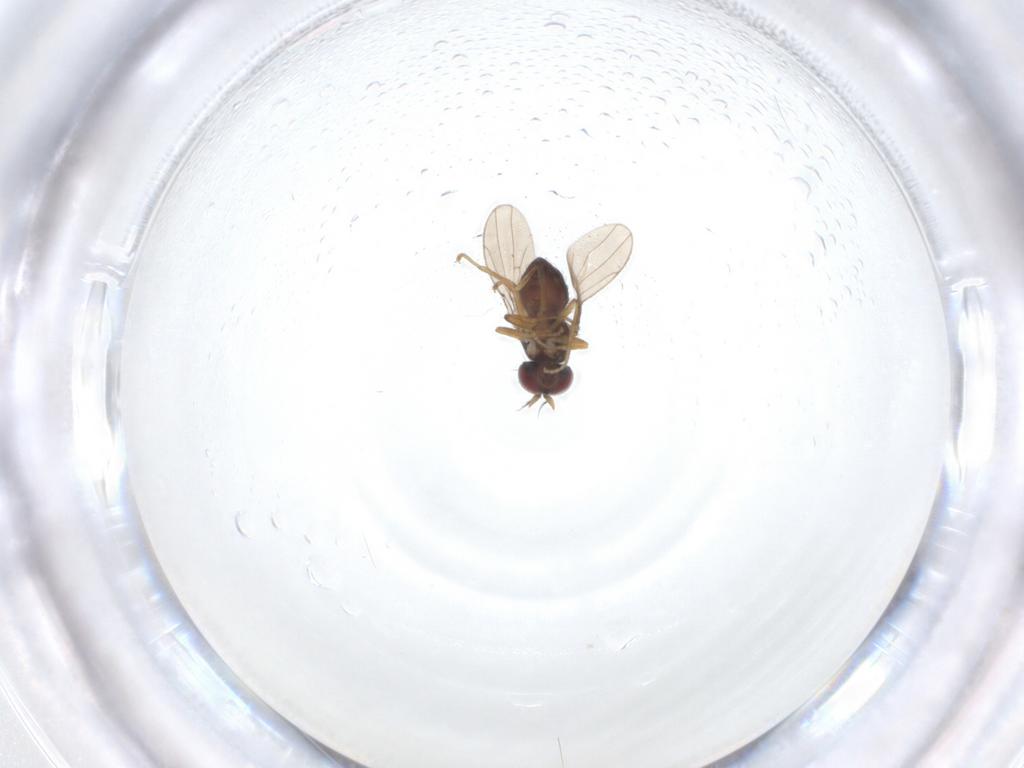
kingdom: Animalia
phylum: Arthropoda
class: Insecta
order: Diptera
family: Muscidae
